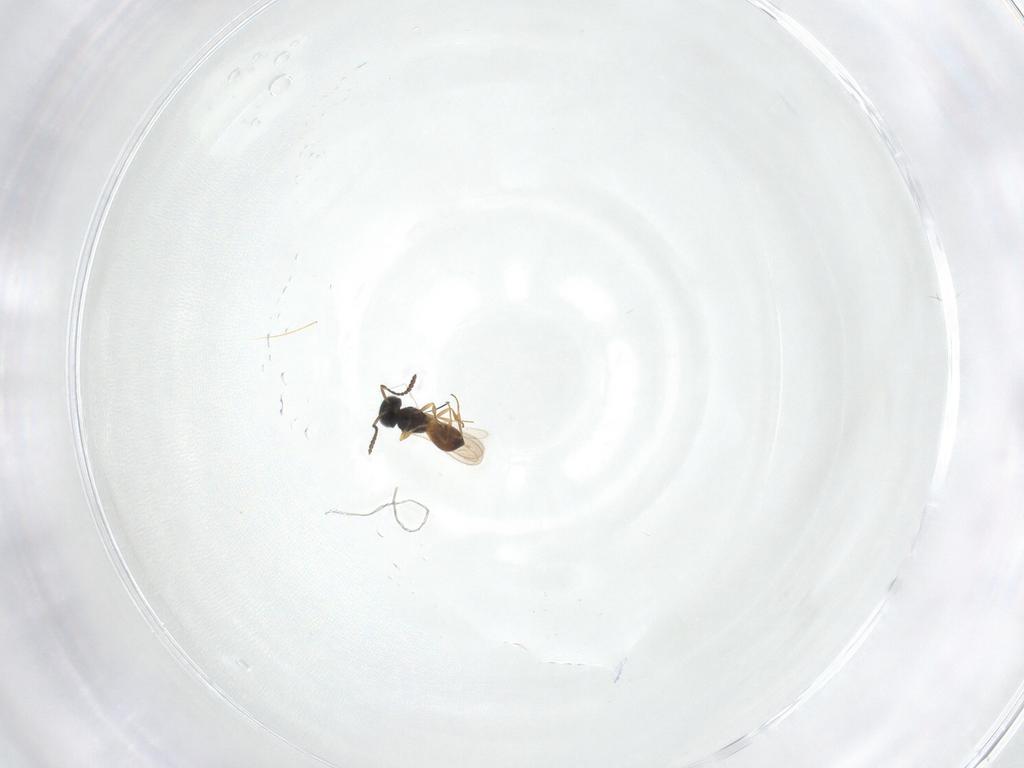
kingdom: Animalia
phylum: Arthropoda
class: Insecta
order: Hymenoptera
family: Scelionidae
